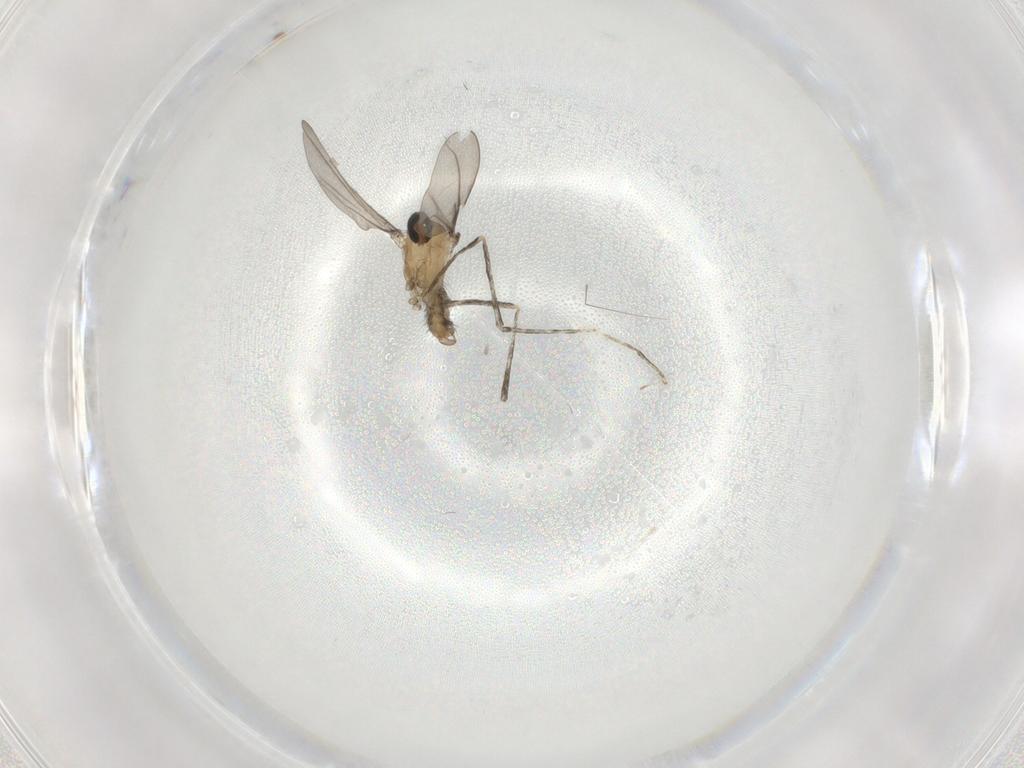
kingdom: Animalia
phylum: Arthropoda
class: Insecta
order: Diptera
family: Cecidomyiidae
